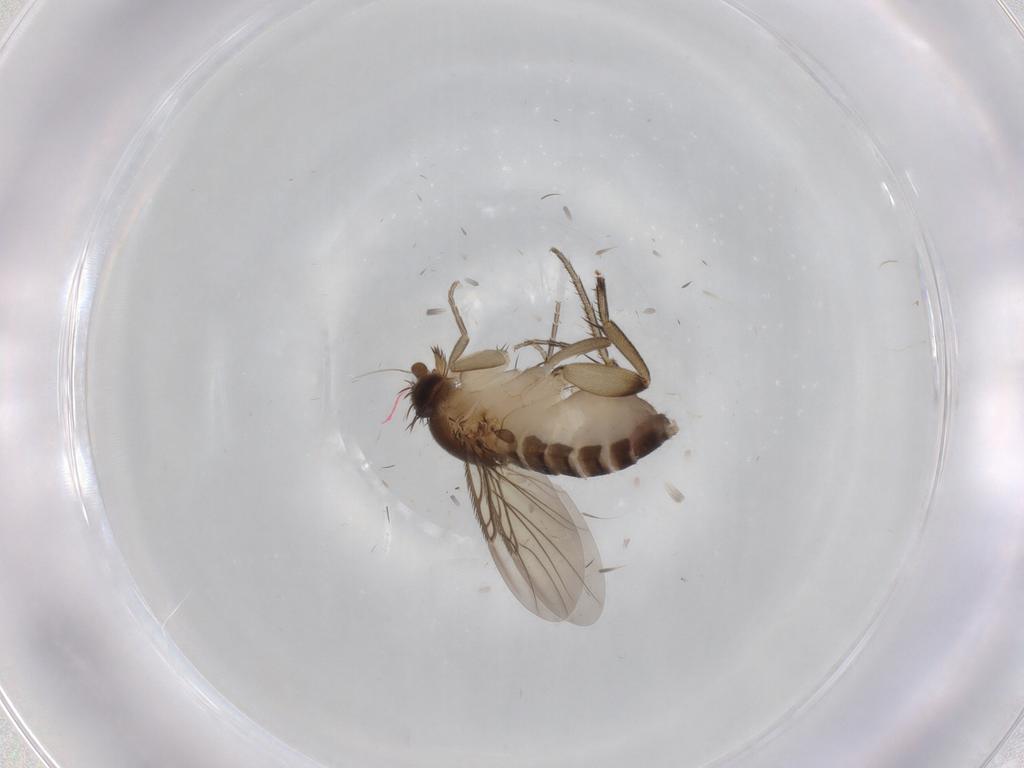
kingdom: Animalia
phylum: Arthropoda
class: Insecta
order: Diptera
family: Cecidomyiidae
